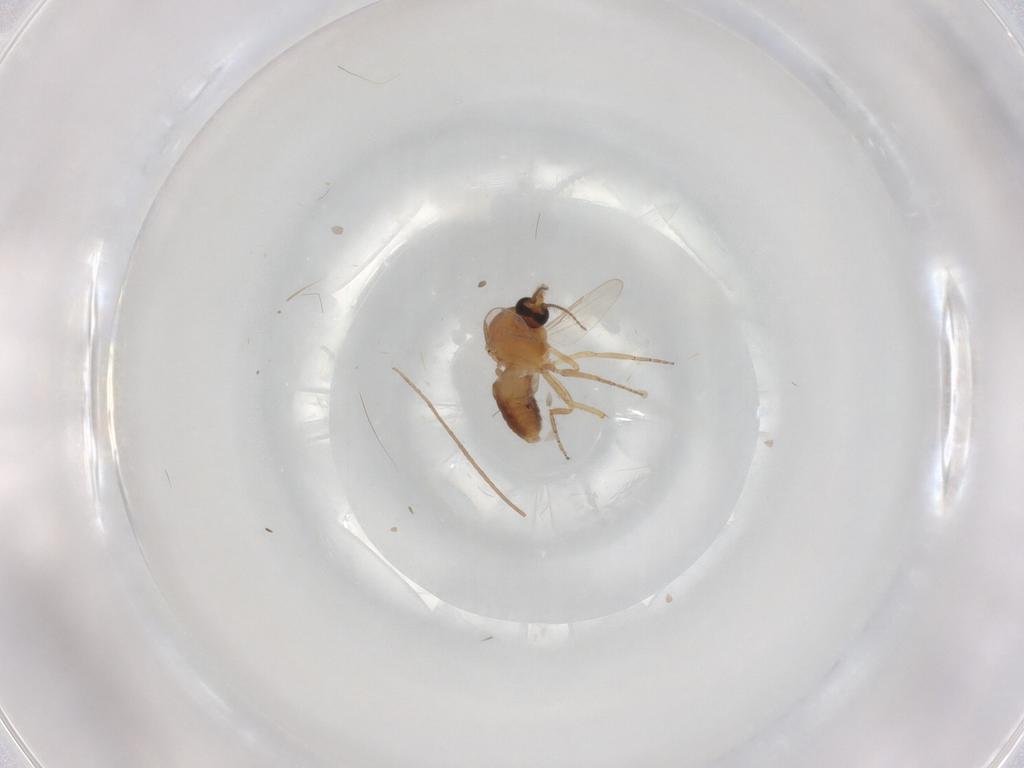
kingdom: Animalia
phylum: Arthropoda
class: Insecta
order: Diptera
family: Ceratopogonidae
